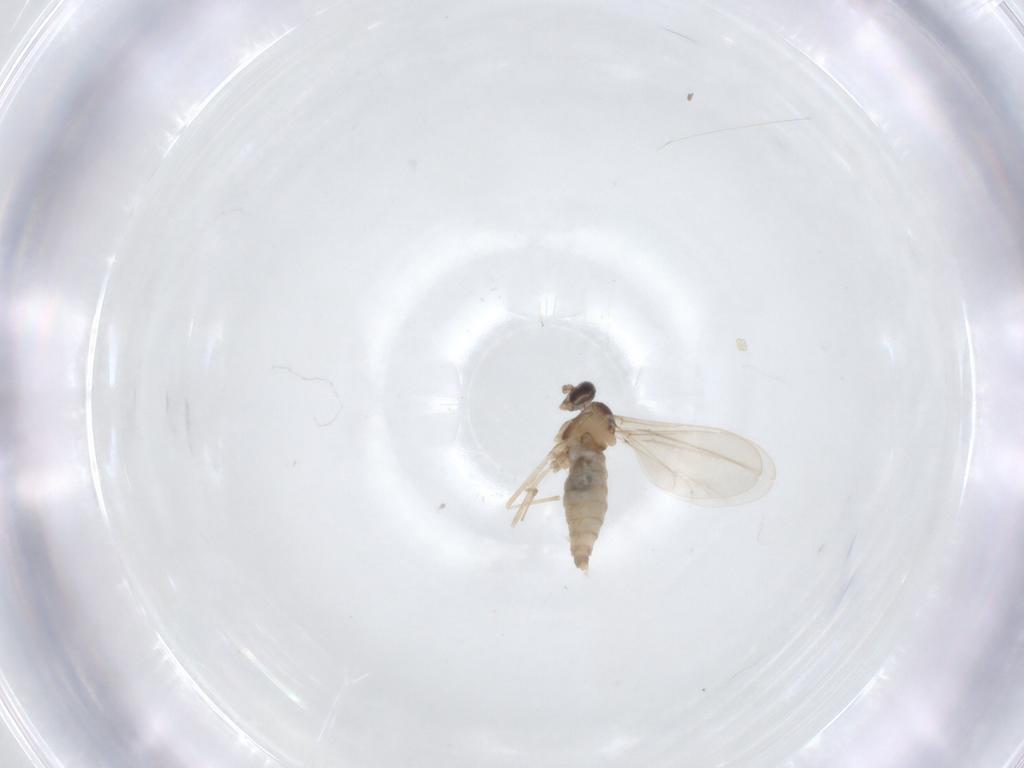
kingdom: Animalia
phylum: Arthropoda
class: Insecta
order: Diptera
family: Cecidomyiidae
